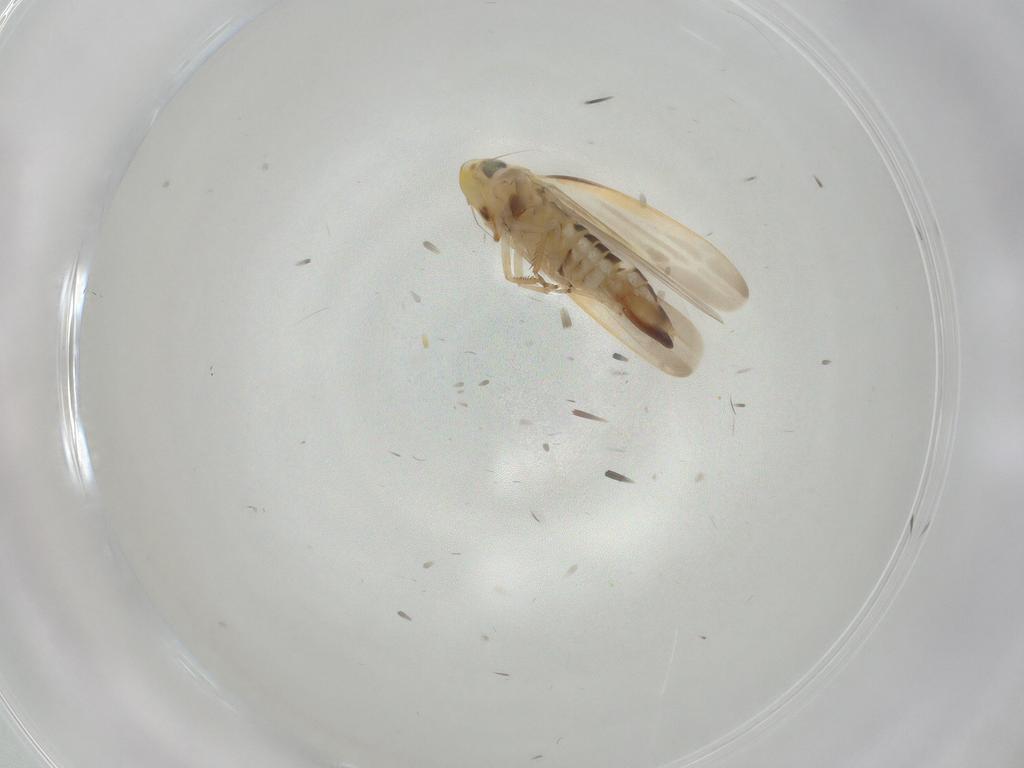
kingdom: Animalia
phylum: Arthropoda
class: Insecta
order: Hemiptera
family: Cicadellidae
